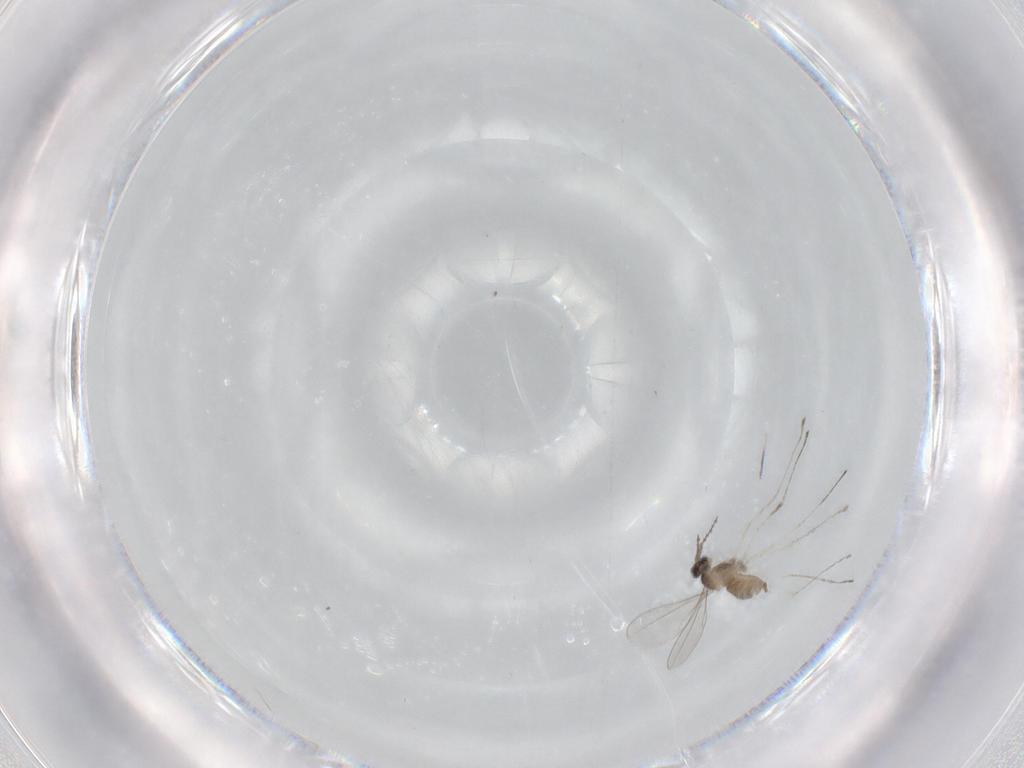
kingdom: Animalia
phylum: Arthropoda
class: Insecta
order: Diptera
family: Cecidomyiidae
